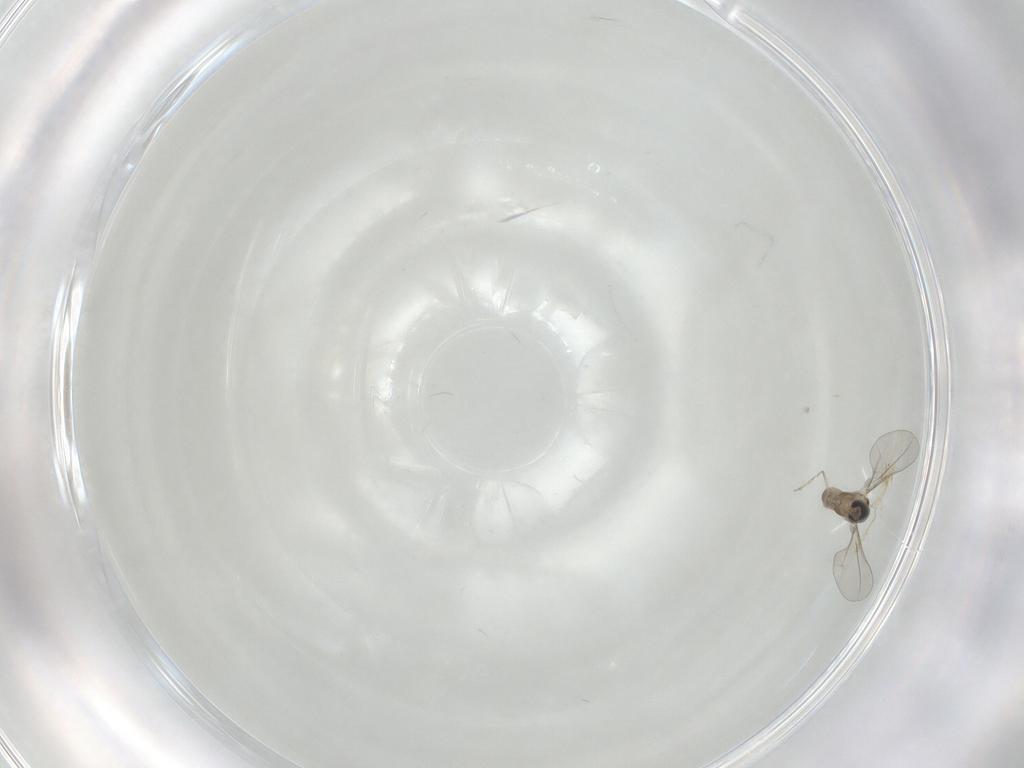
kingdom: Animalia
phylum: Arthropoda
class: Insecta
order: Diptera
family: Cecidomyiidae
